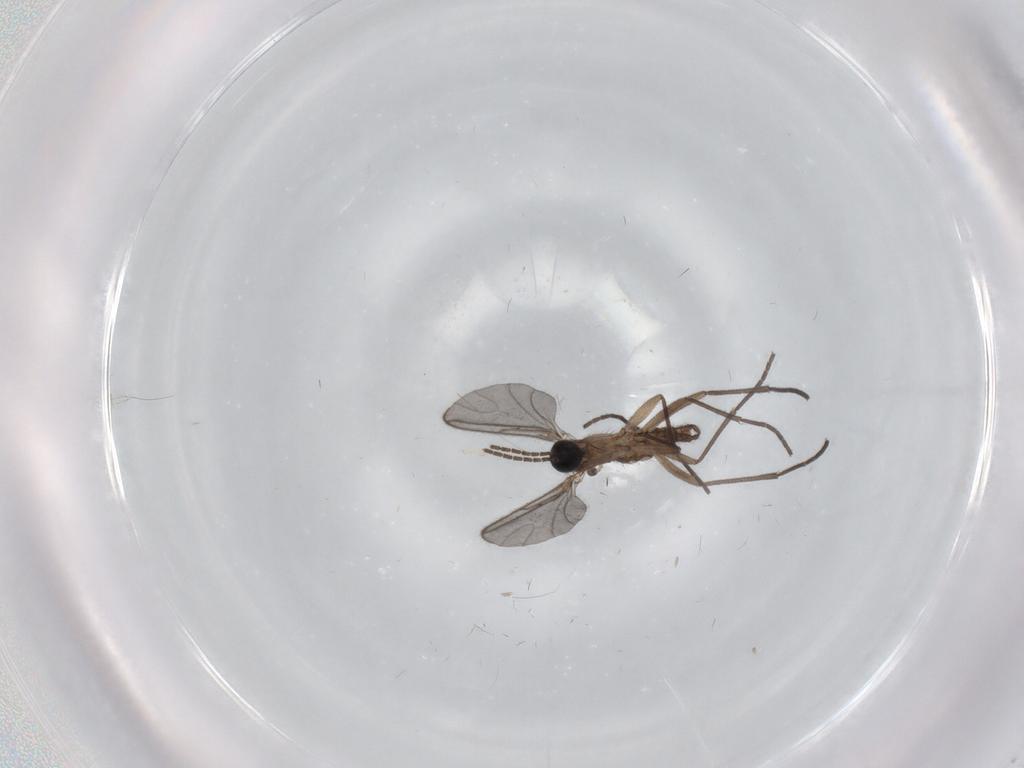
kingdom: Animalia
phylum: Arthropoda
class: Insecta
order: Diptera
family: Sciaridae
